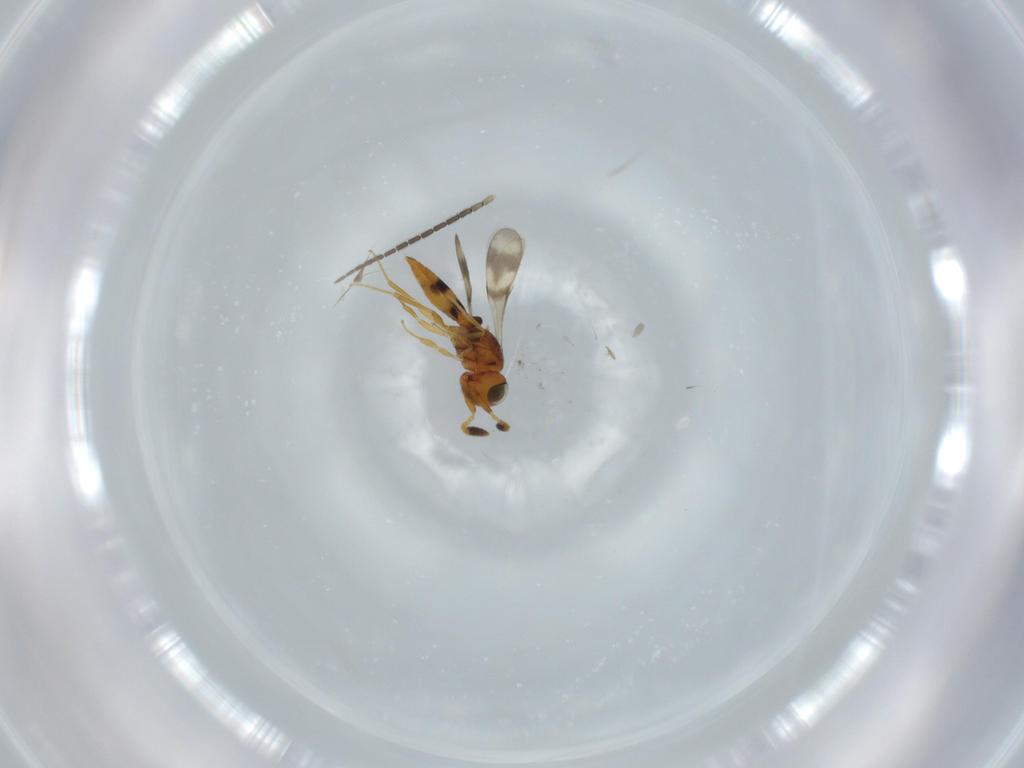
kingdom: Animalia
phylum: Arthropoda
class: Insecta
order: Hymenoptera
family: Scelionidae
